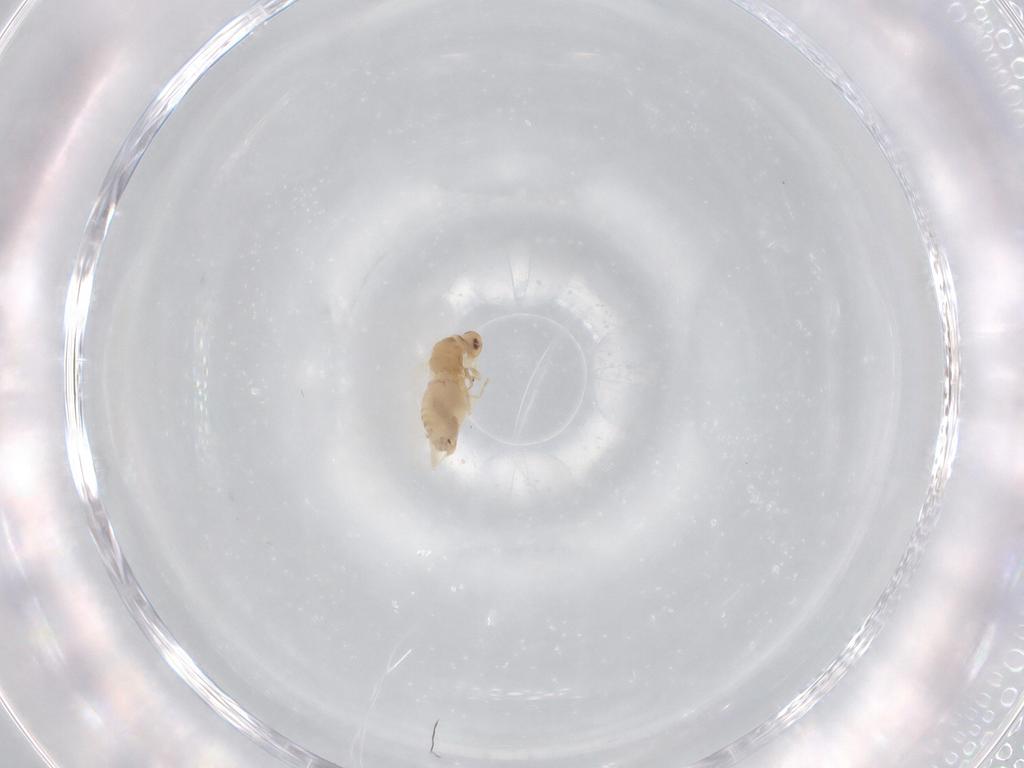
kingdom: Animalia
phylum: Arthropoda
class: Insecta
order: Hemiptera
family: Aleyrodidae
